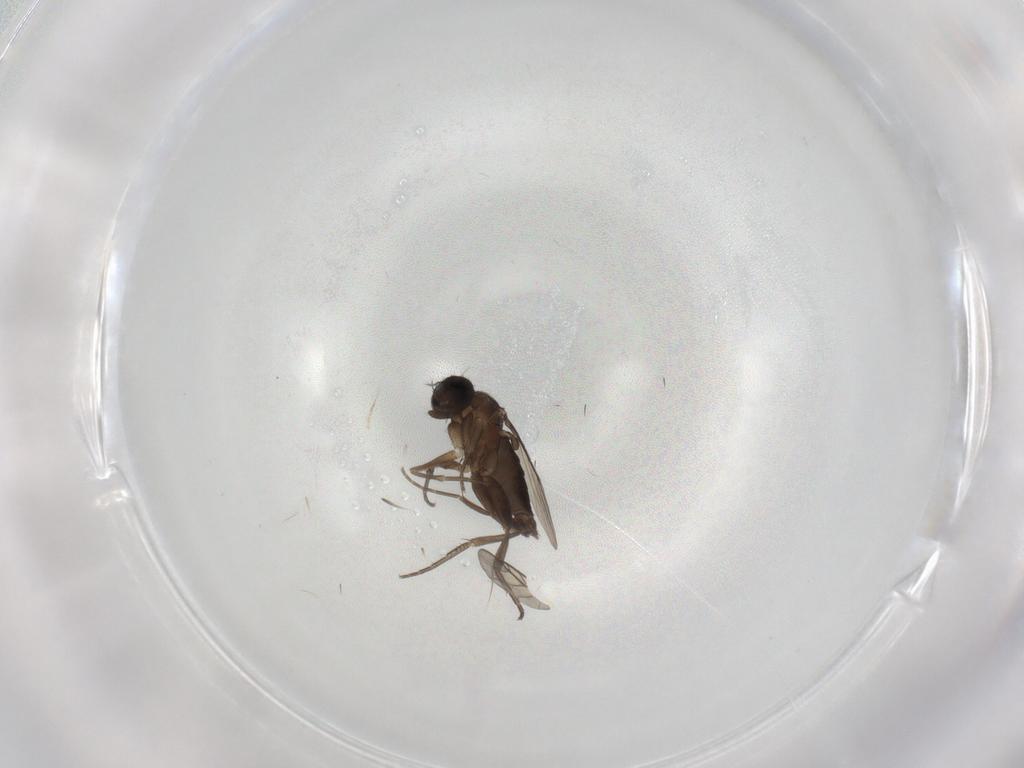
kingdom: Animalia
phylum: Arthropoda
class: Insecta
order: Diptera
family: Phoridae
